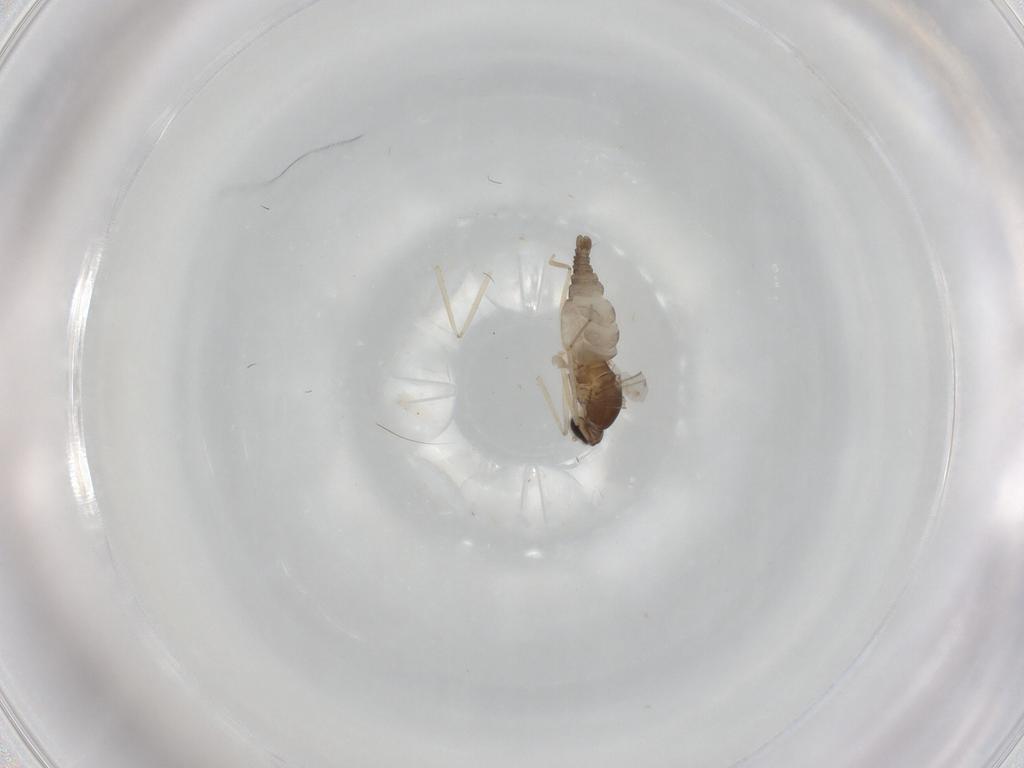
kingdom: Animalia
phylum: Arthropoda
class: Insecta
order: Diptera
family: Cecidomyiidae
